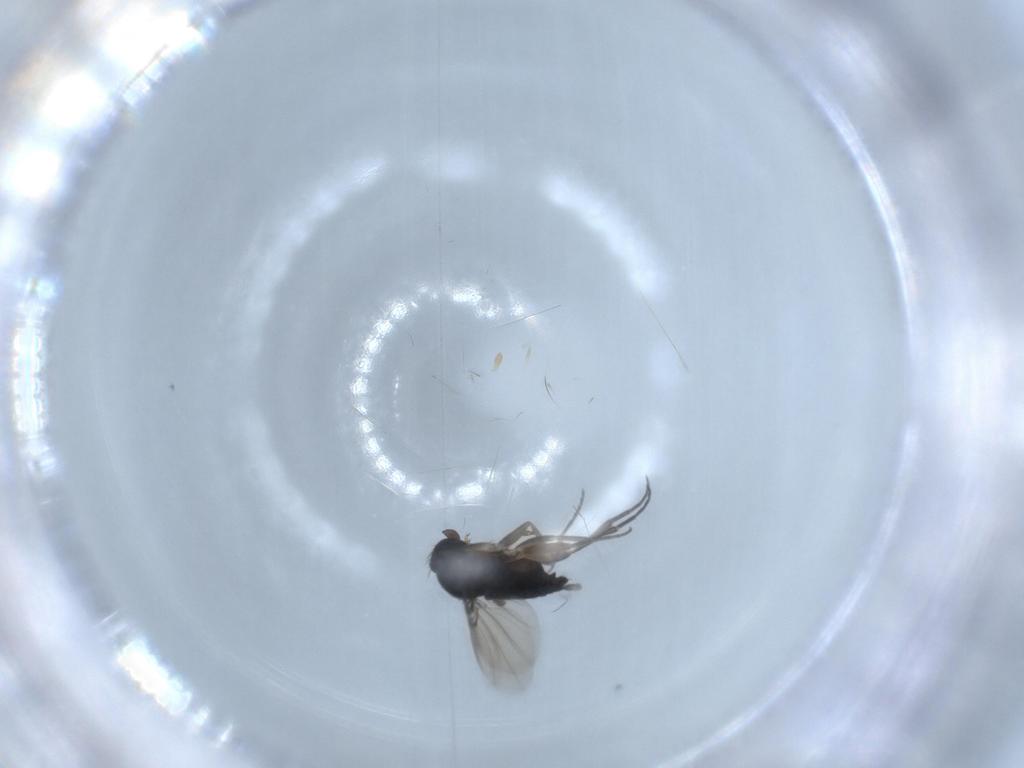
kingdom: Animalia
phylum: Arthropoda
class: Insecta
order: Diptera
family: Phoridae
